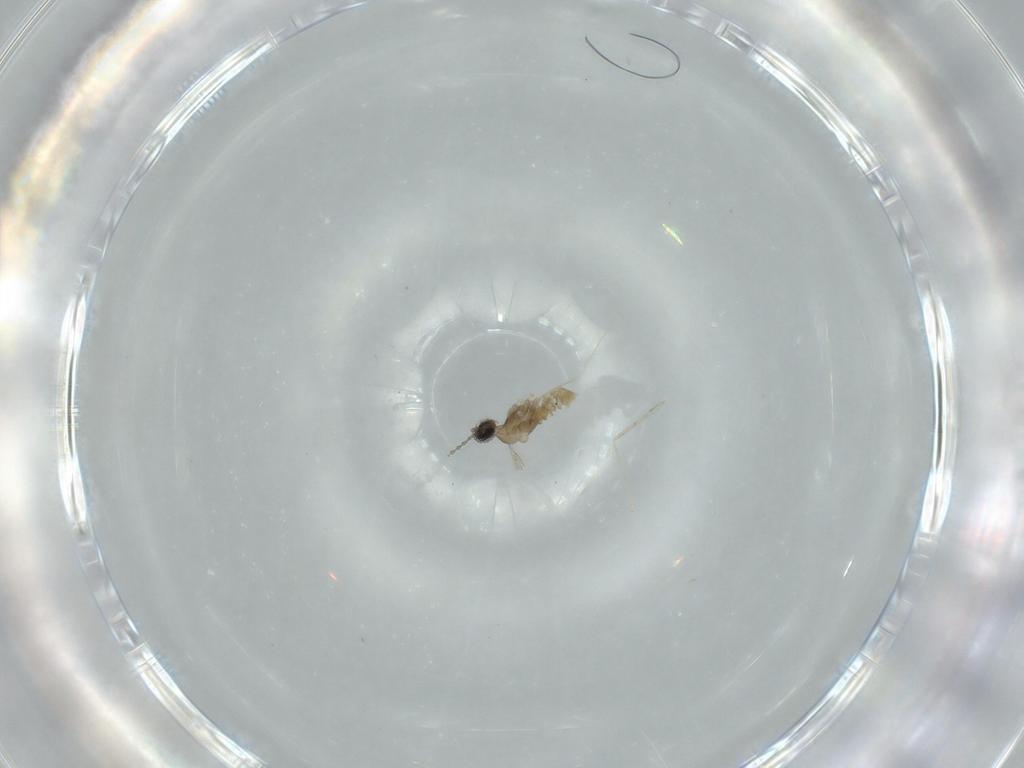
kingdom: Animalia
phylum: Arthropoda
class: Insecta
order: Diptera
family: Cecidomyiidae
